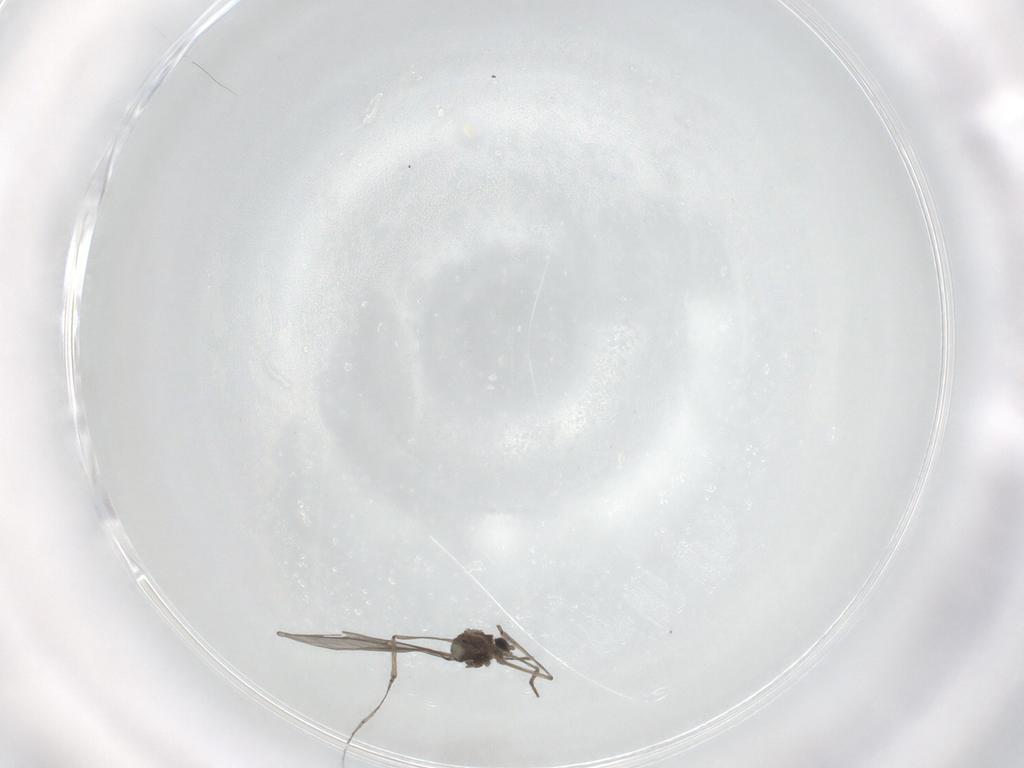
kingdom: Animalia
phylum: Arthropoda
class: Insecta
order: Diptera
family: Cecidomyiidae
